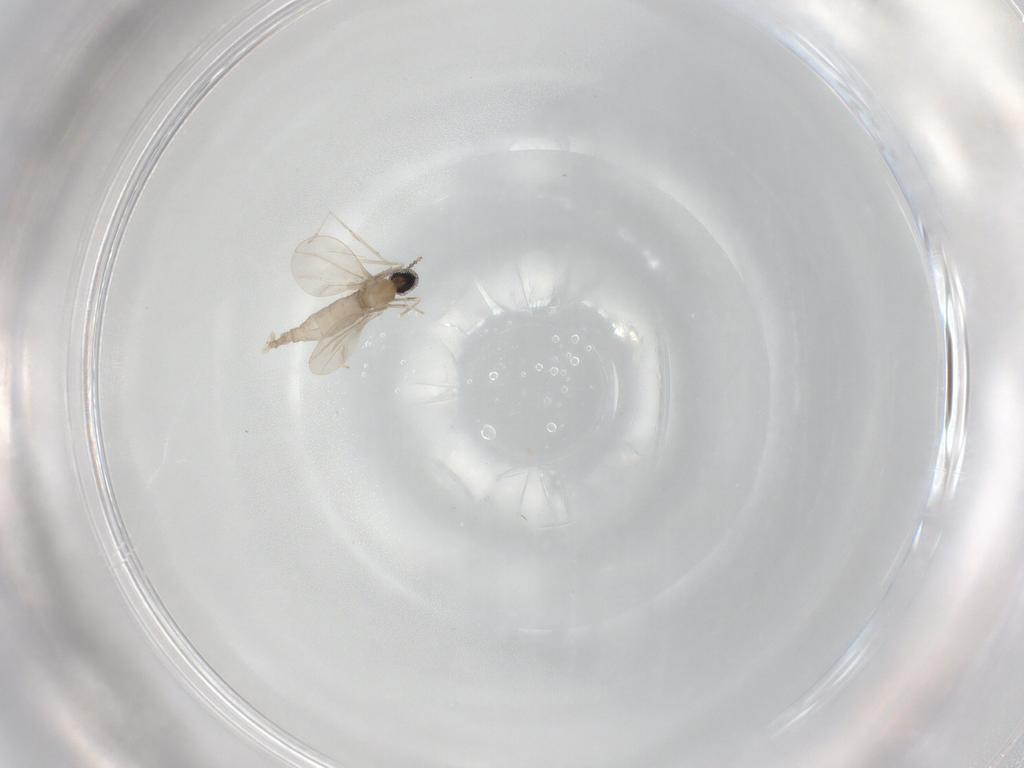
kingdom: Animalia
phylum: Arthropoda
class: Insecta
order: Diptera
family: Cecidomyiidae
